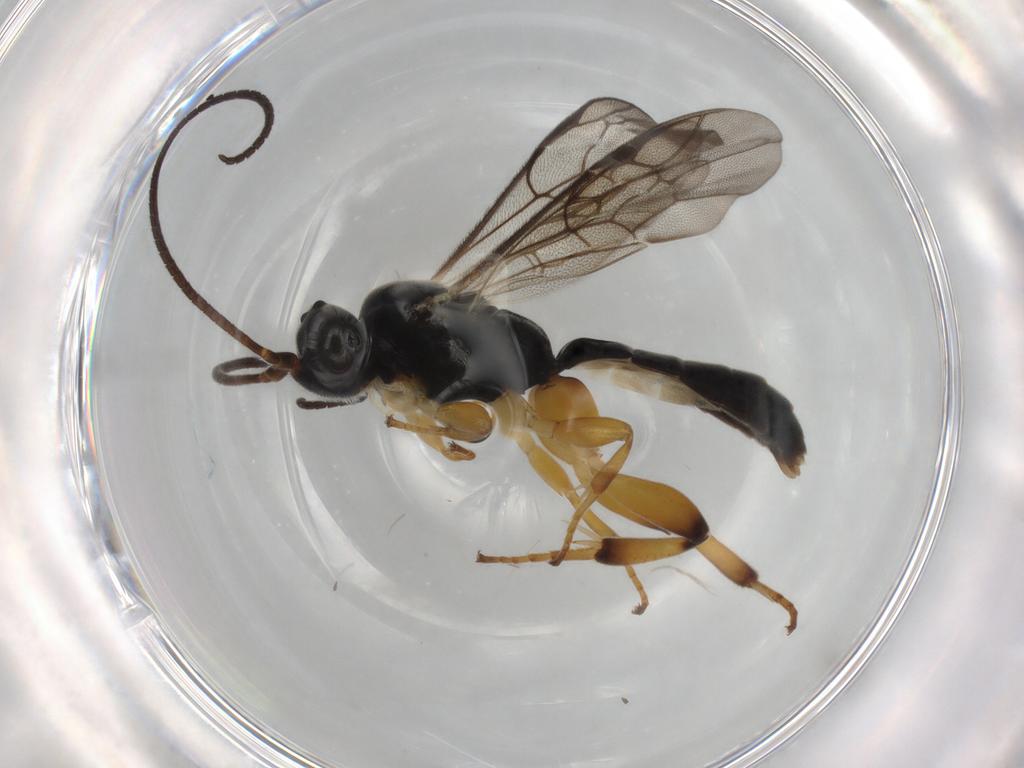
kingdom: Animalia
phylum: Arthropoda
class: Insecta
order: Hymenoptera
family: Ichneumonidae
